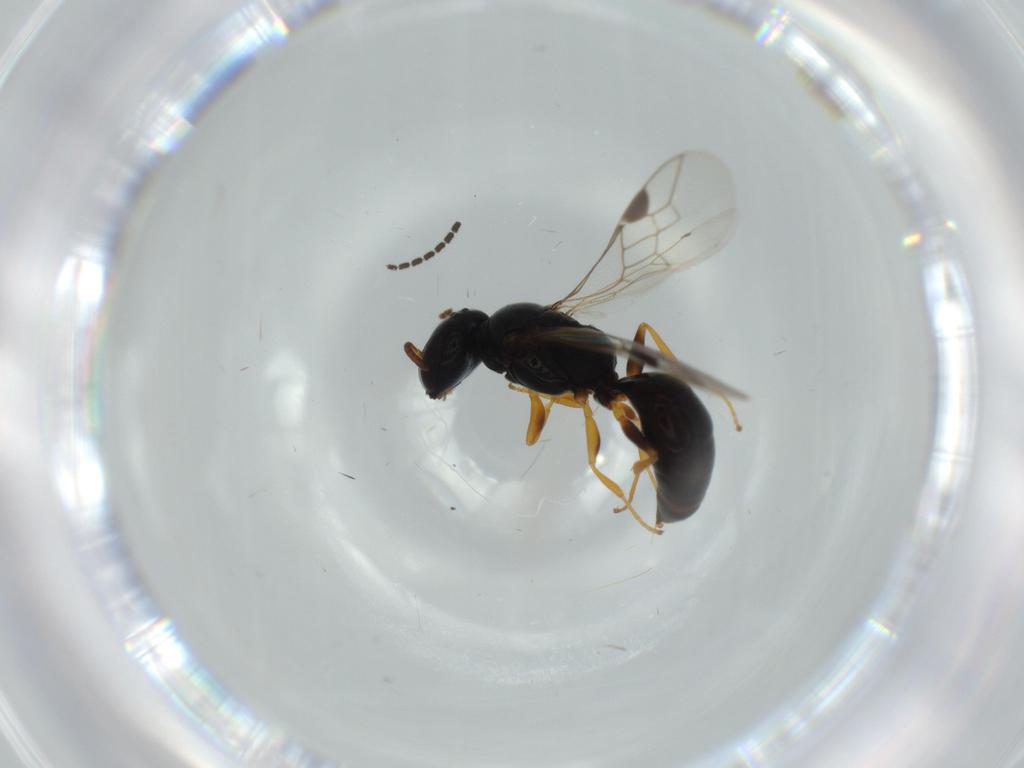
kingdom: Animalia
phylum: Arthropoda
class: Insecta
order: Hymenoptera
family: Pemphredonidae
